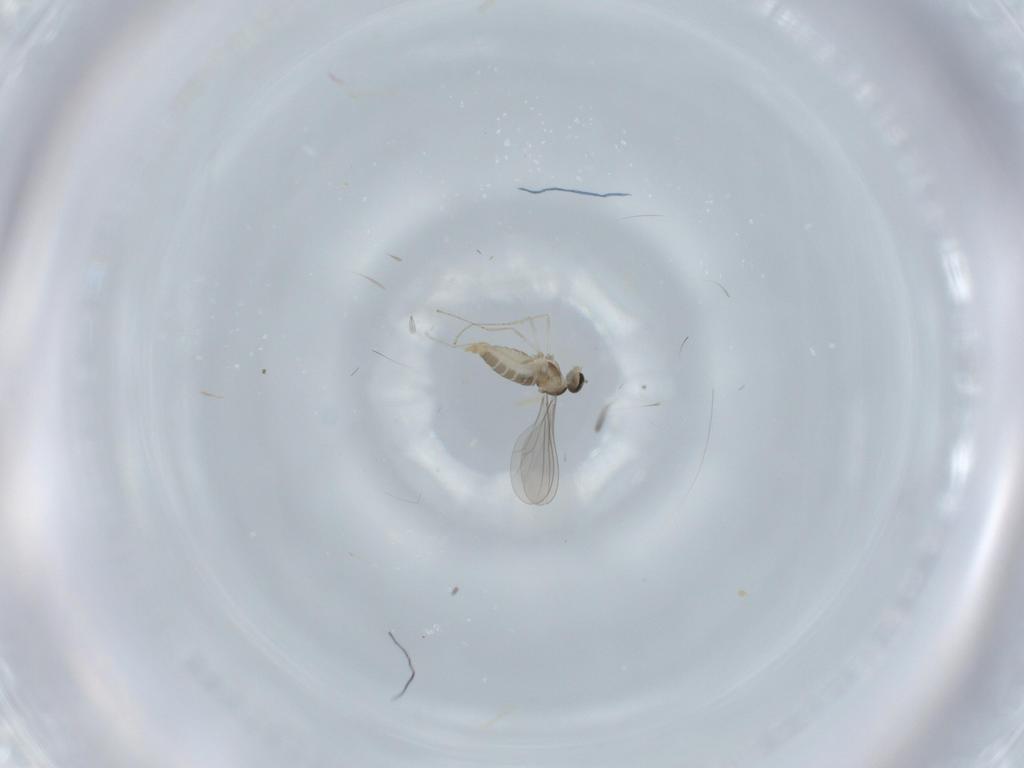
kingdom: Animalia
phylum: Arthropoda
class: Insecta
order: Diptera
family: Cecidomyiidae
